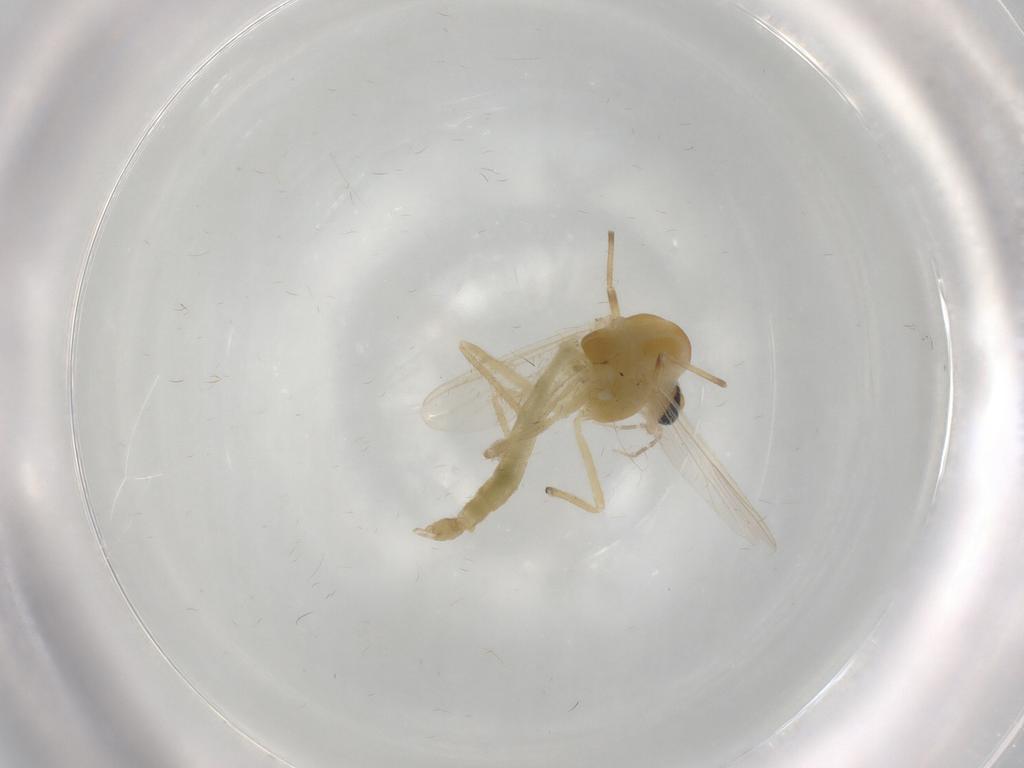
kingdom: Animalia
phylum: Arthropoda
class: Insecta
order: Diptera
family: Chironomidae
